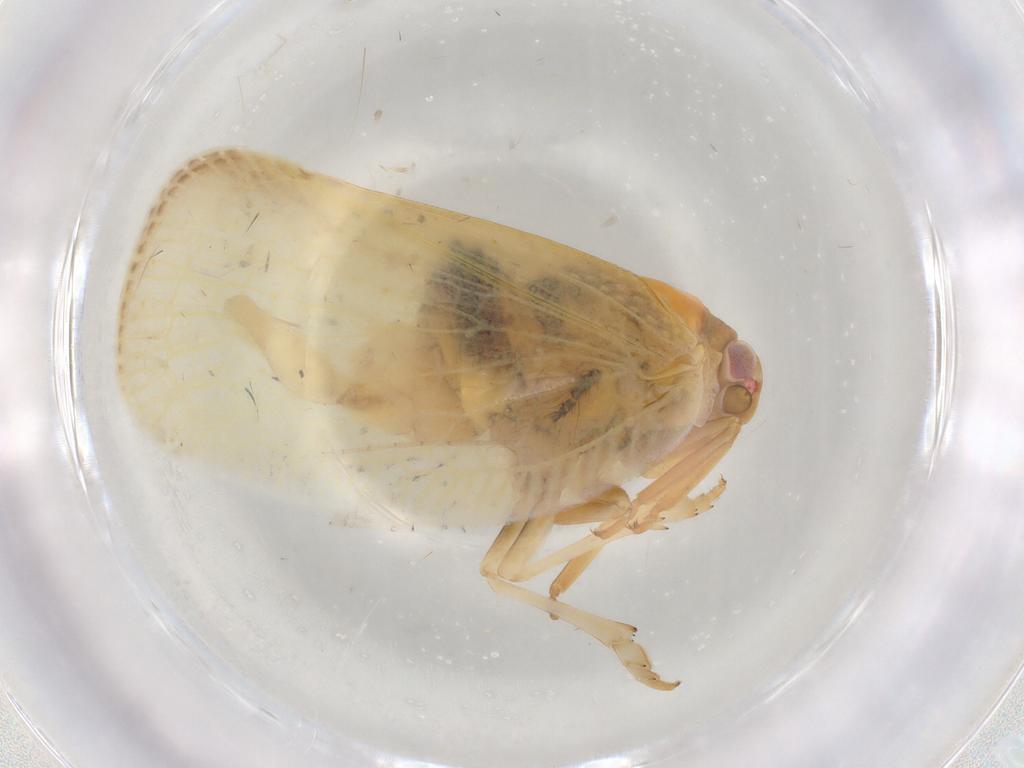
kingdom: Animalia
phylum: Arthropoda
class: Insecta
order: Hemiptera
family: Flatidae
